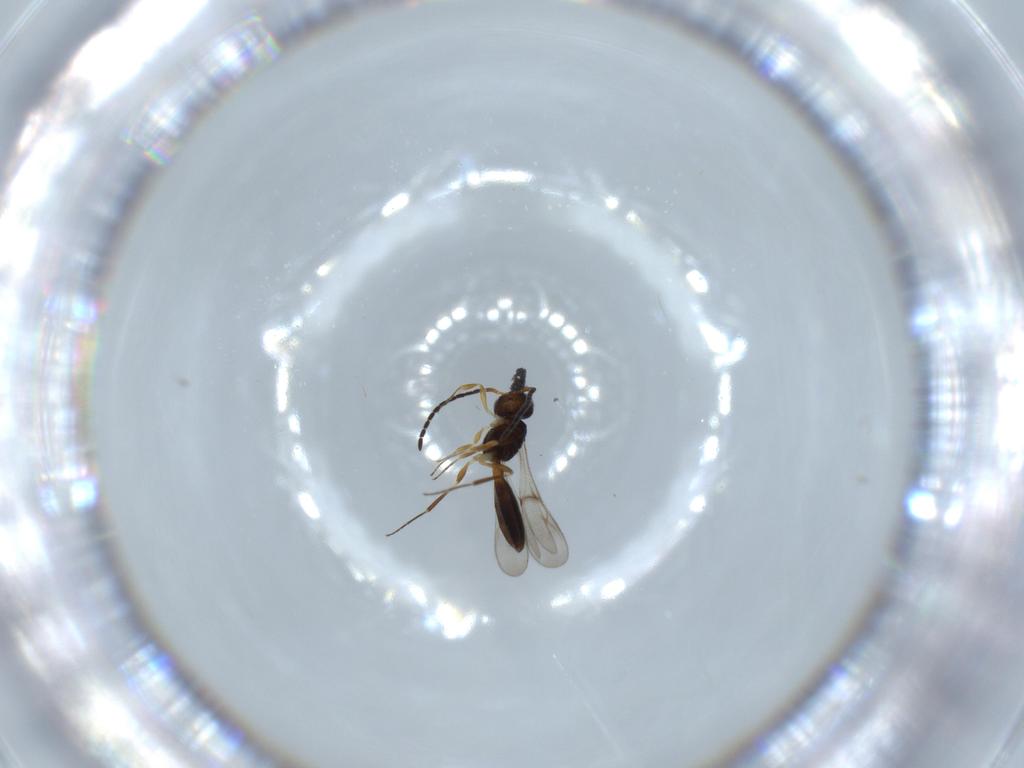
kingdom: Animalia
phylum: Arthropoda
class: Insecta
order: Hymenoptera
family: Scelionidae
